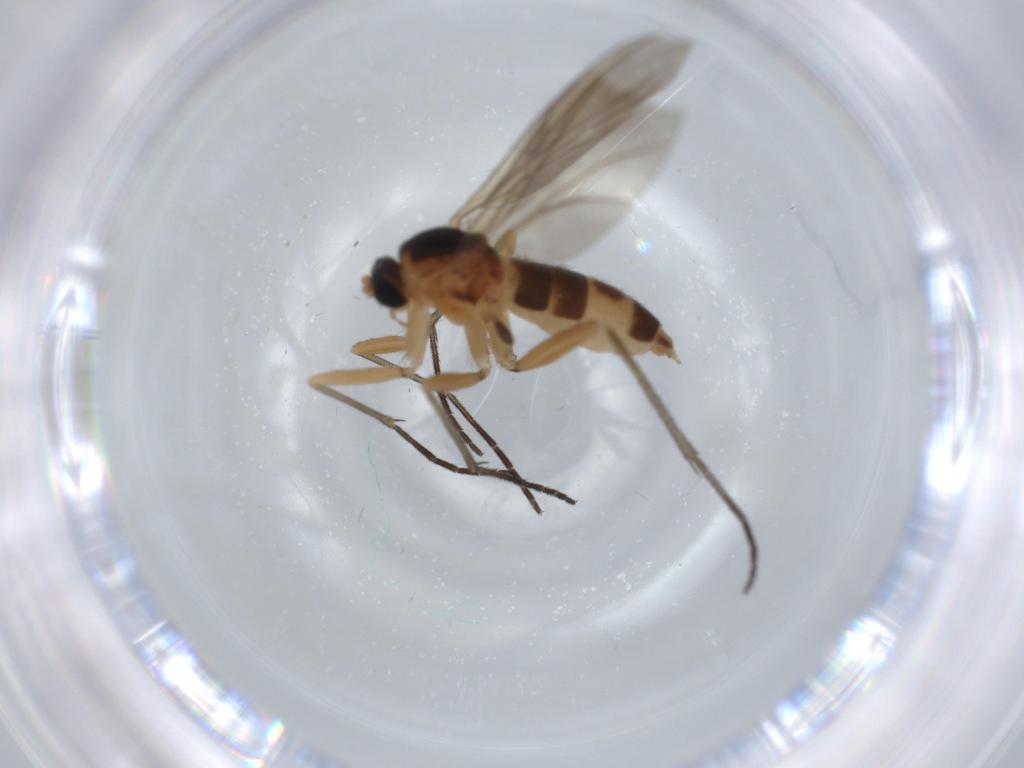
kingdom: Animalia
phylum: Arthropoda
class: Insecta
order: Diptera
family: Sciaridae
